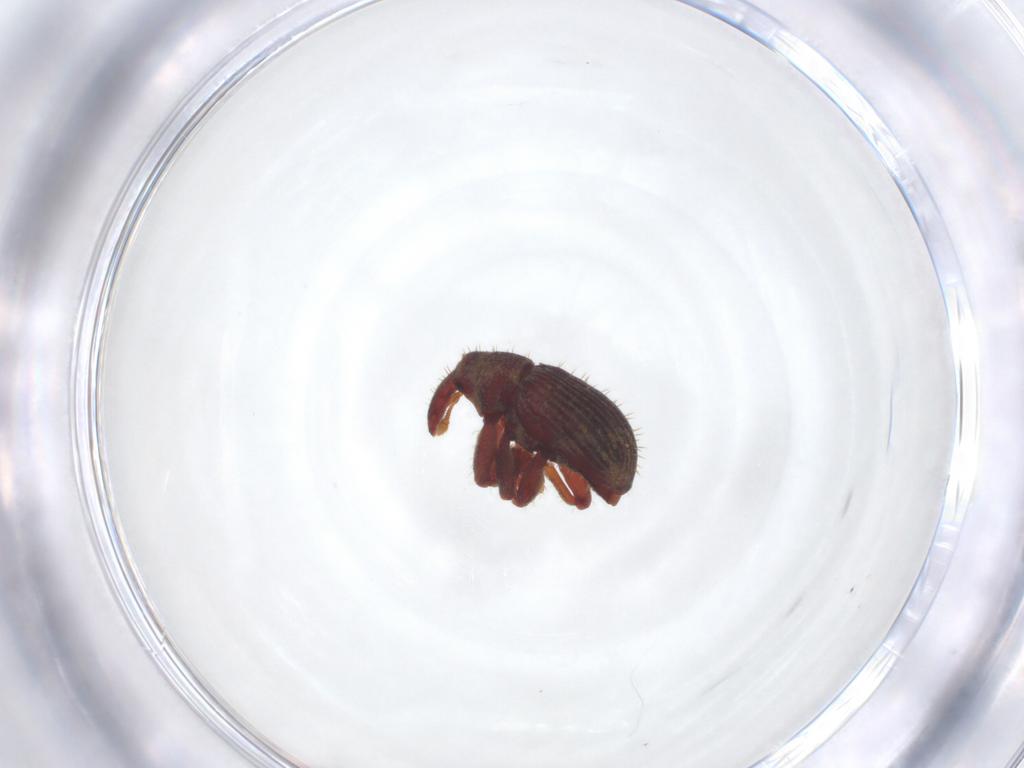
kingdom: Animalia
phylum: Arthropoda
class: Insecta
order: Coleoptera
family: Curculionidae
